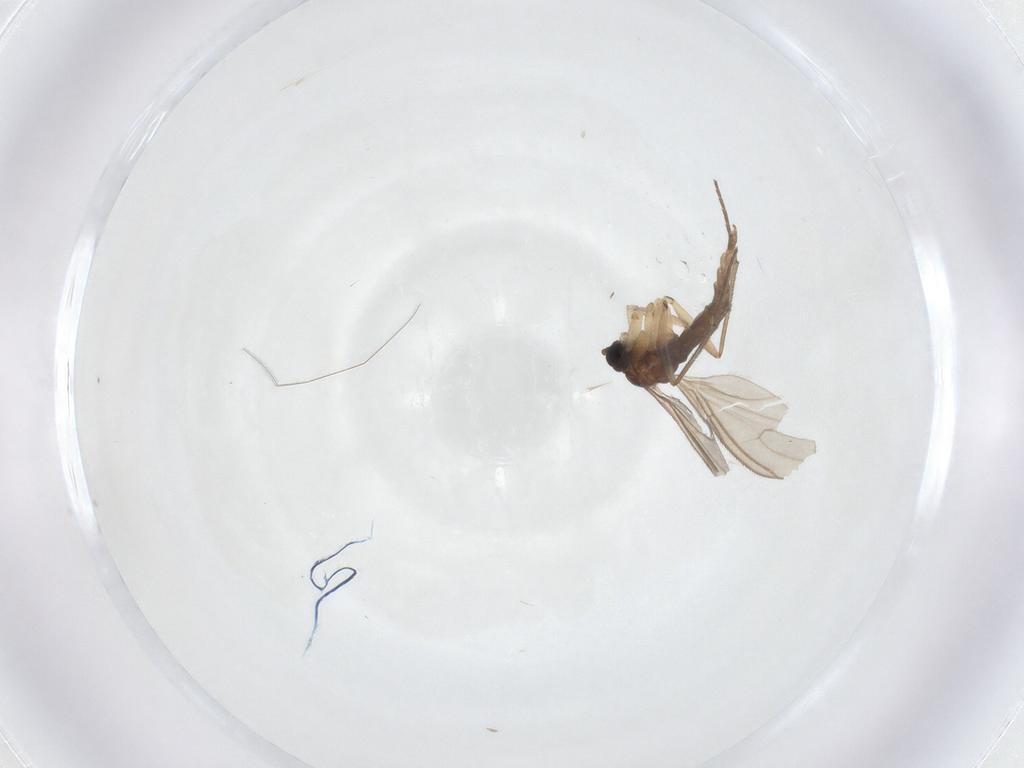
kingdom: Animalia
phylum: Arthropoda
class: Insecta
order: Diptera
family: Sciaridae
